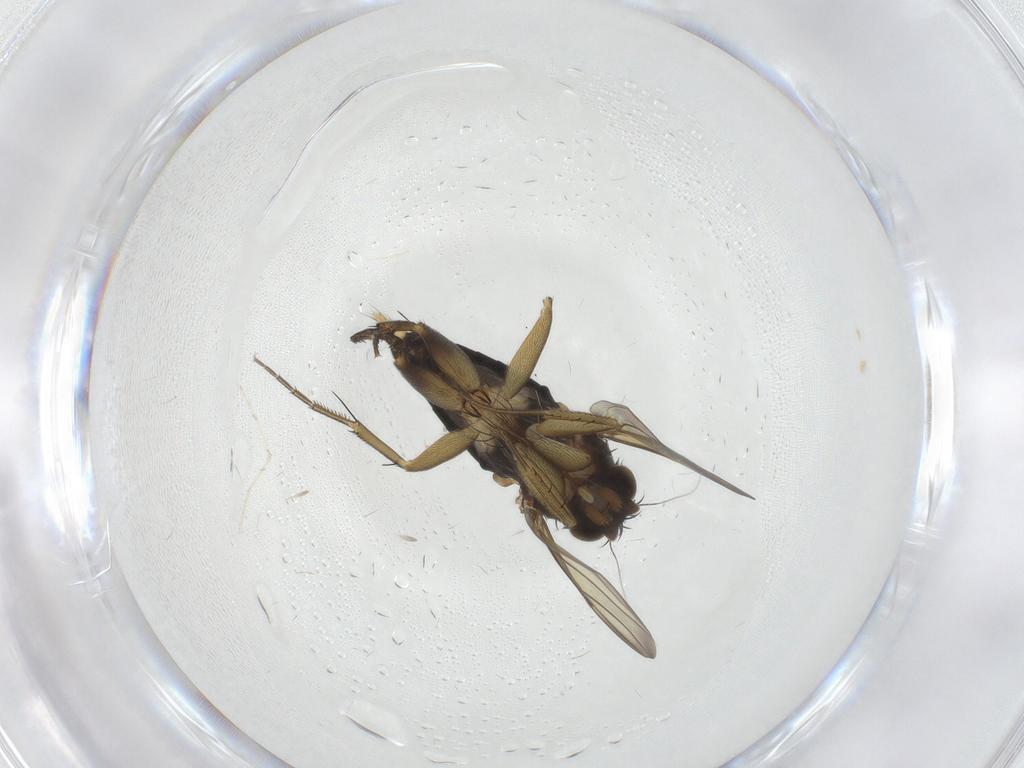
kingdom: Animalia
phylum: Arthropoda
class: Insecta
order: Diptera
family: Phoridae
